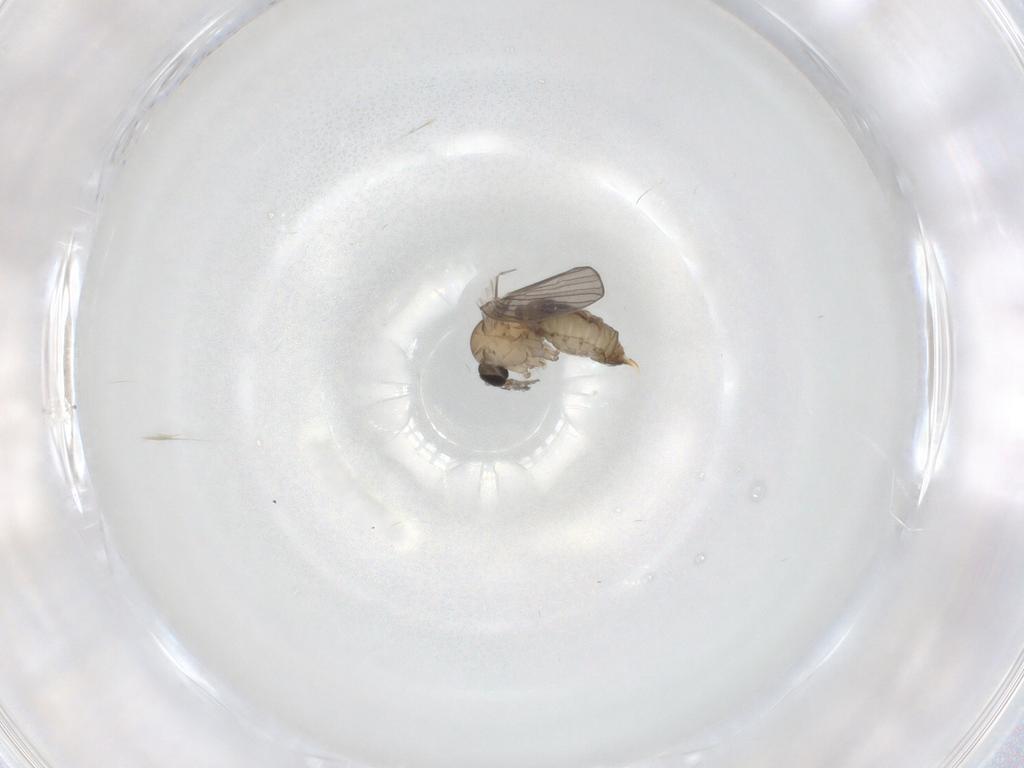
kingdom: Animalia
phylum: Arthropoda
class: Insecta
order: Diptera
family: Psychodidae
